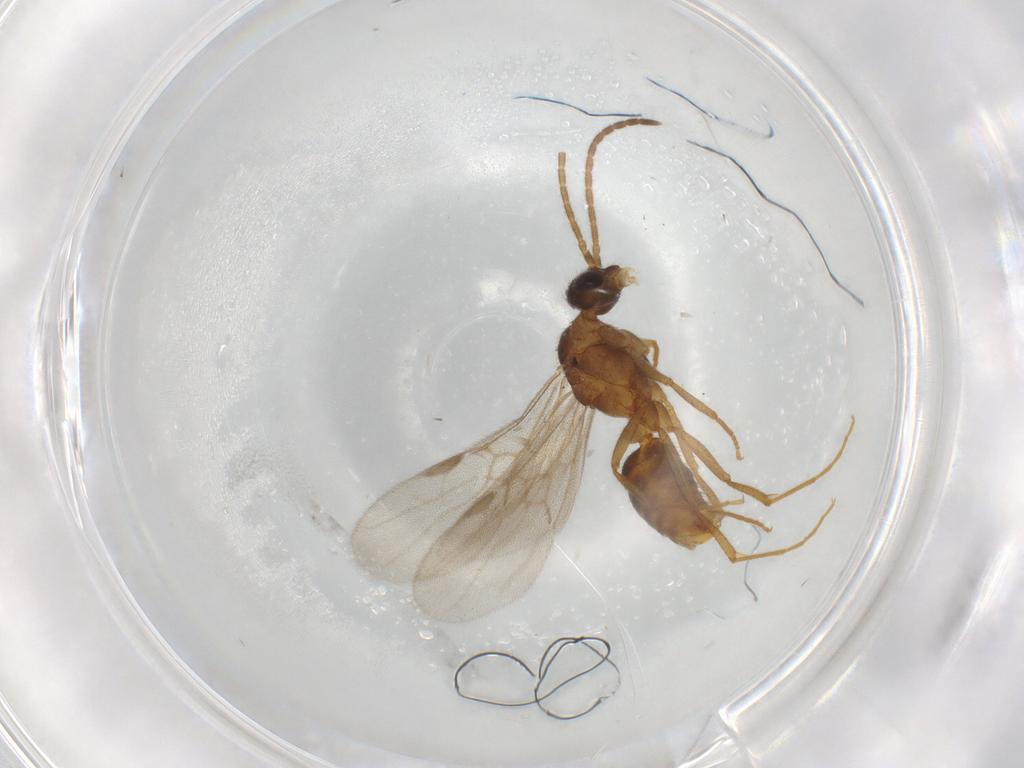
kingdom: Animalia
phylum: Arthropoda
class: Insecta
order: Hymenoptera
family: Formicidae
